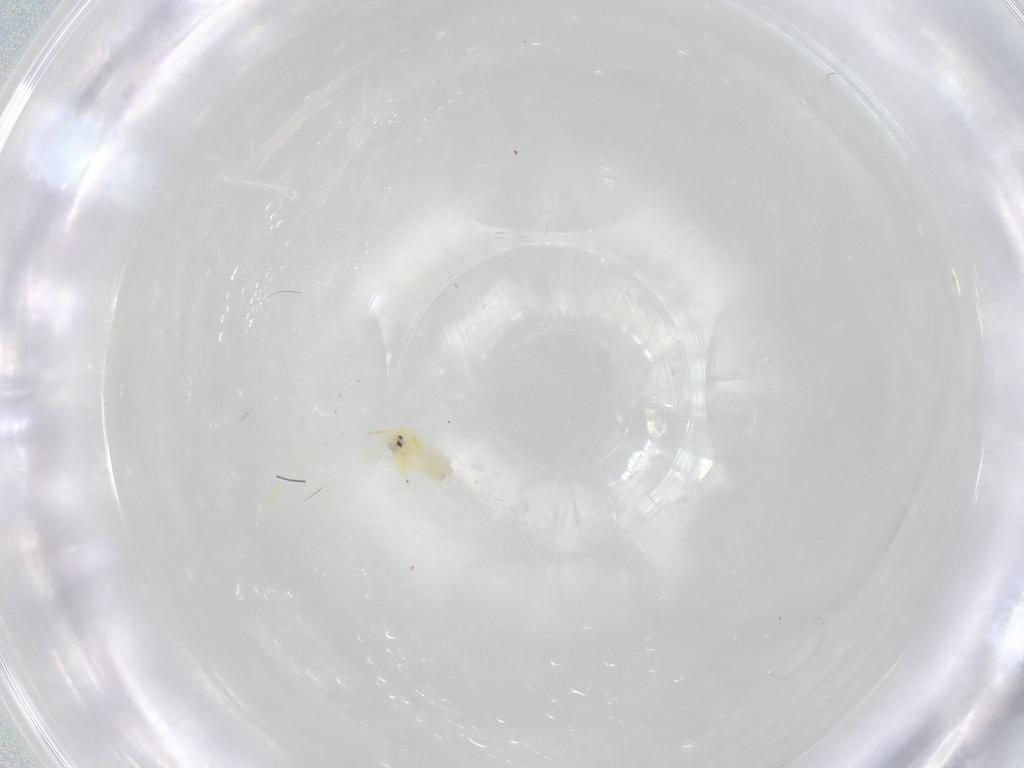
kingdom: Animalia
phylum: Arthropoda
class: Insecta
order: Hemiptera
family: Aleyrodidae
